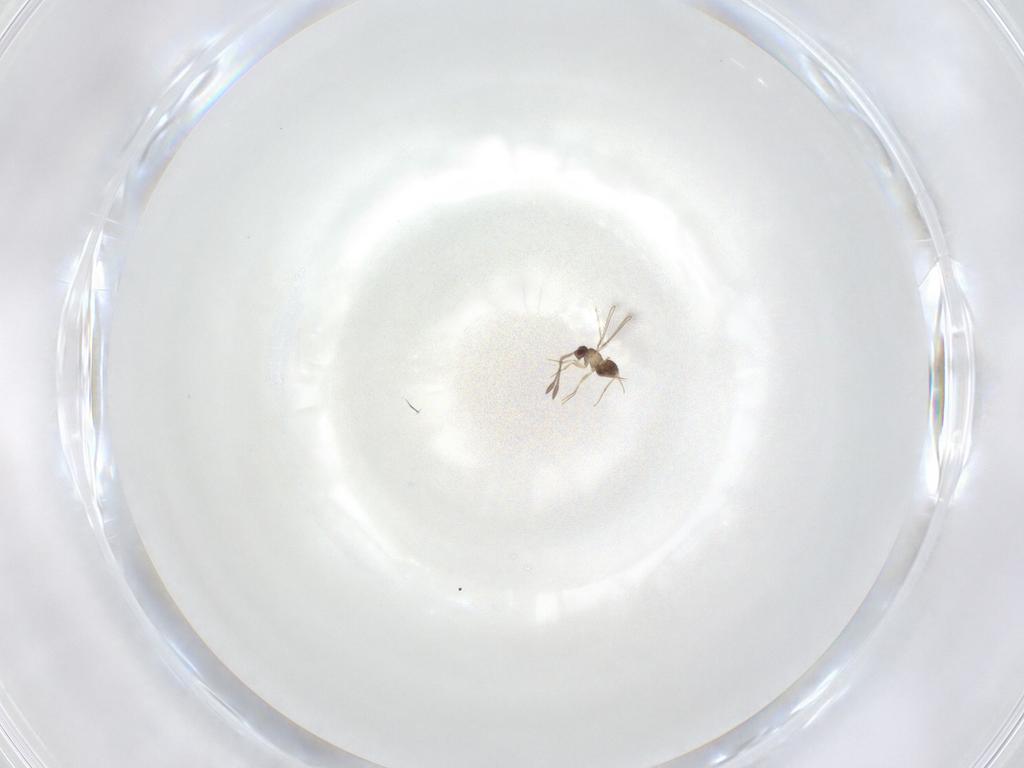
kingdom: Animalia
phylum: Arthropoda
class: Insecta
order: Hymenoptera
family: Mymaridae
